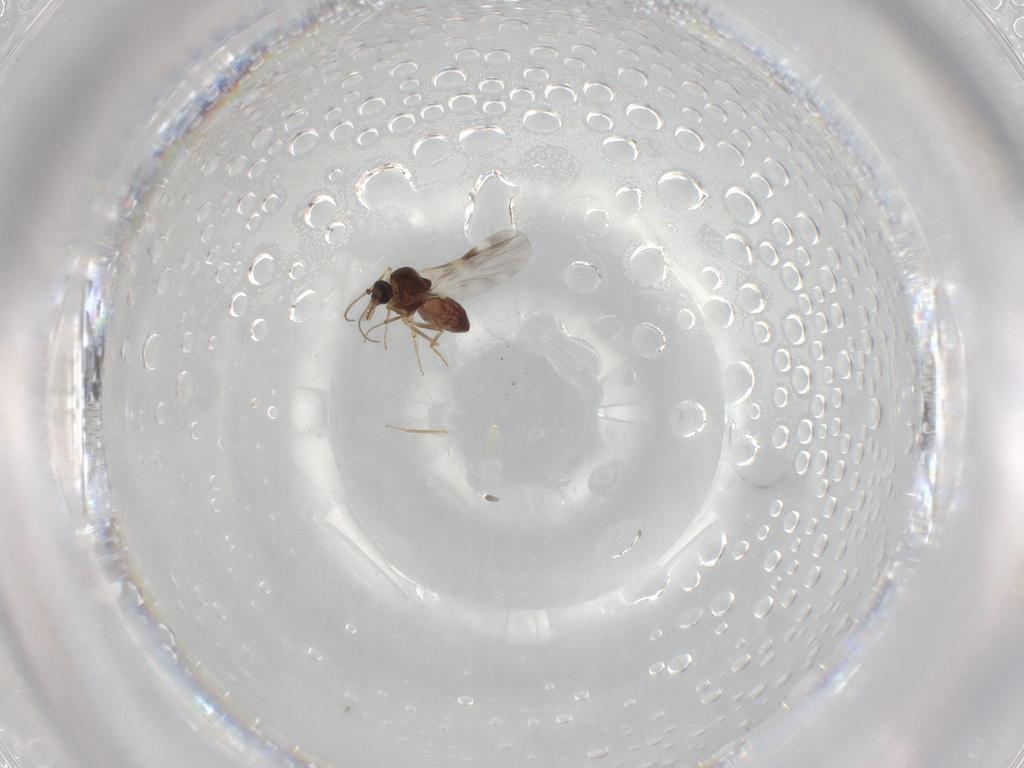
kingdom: Animalia
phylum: Arthropoda
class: Insecta
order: Diptera
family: Ceratopogonidae
